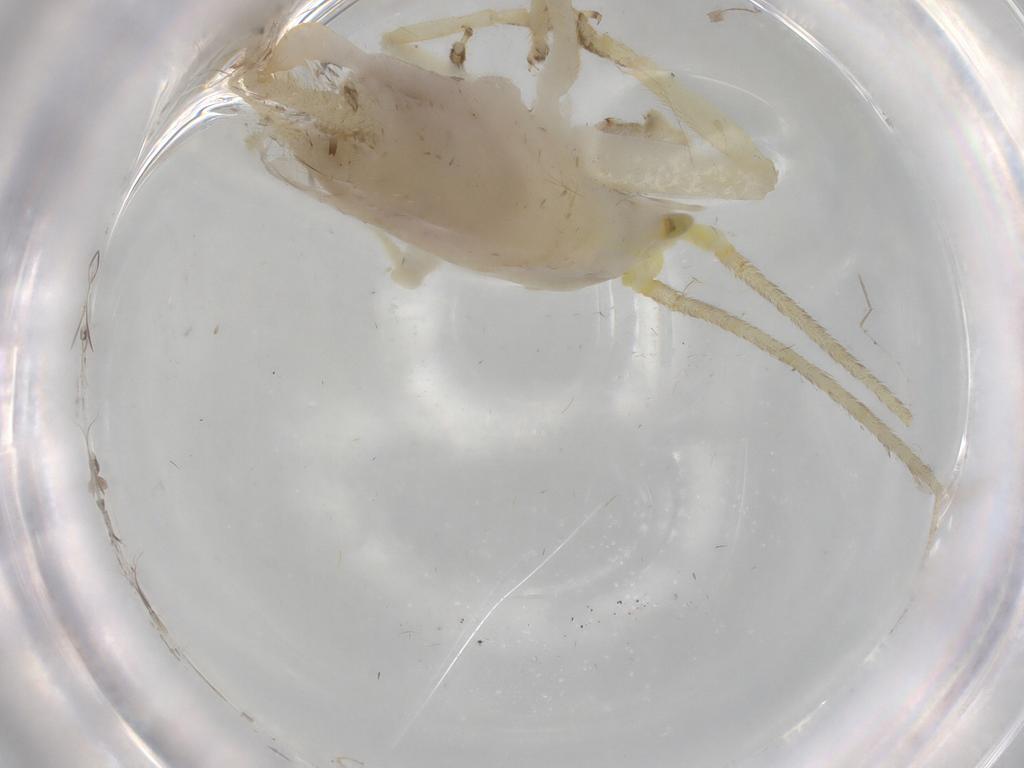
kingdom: Animalia
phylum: Arthropoda
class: Insecta
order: Orthoptera
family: Trigonidiidae
